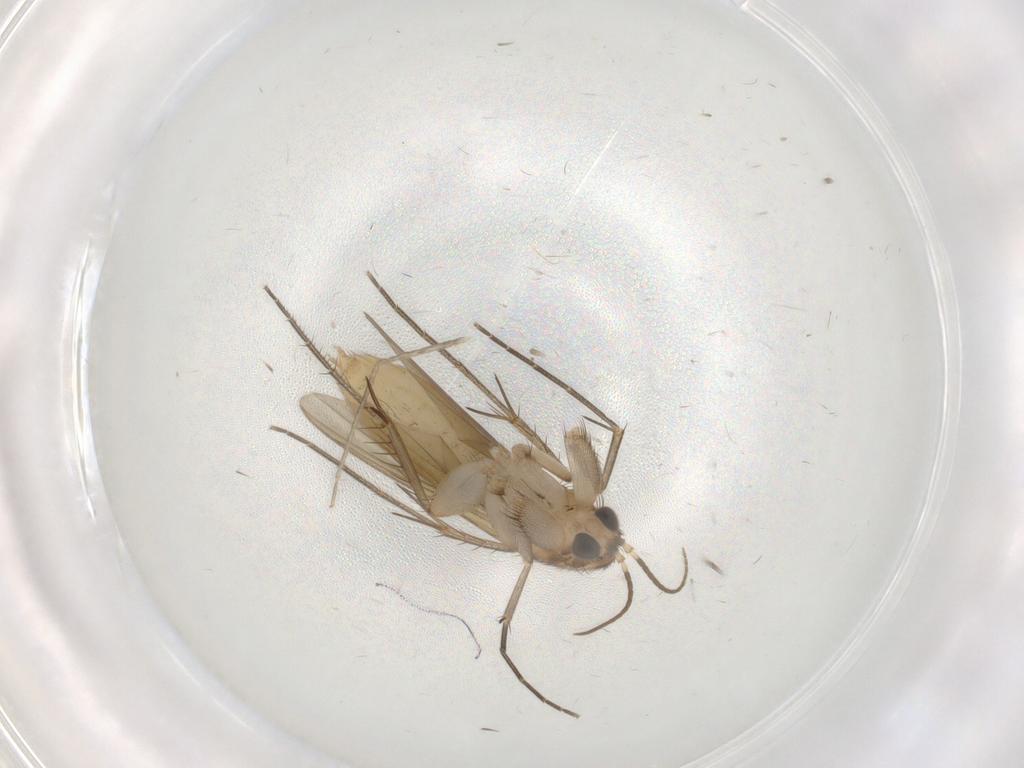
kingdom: Animalia
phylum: Arthropoda
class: Insecta
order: Diptera
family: Mycetophilidae
